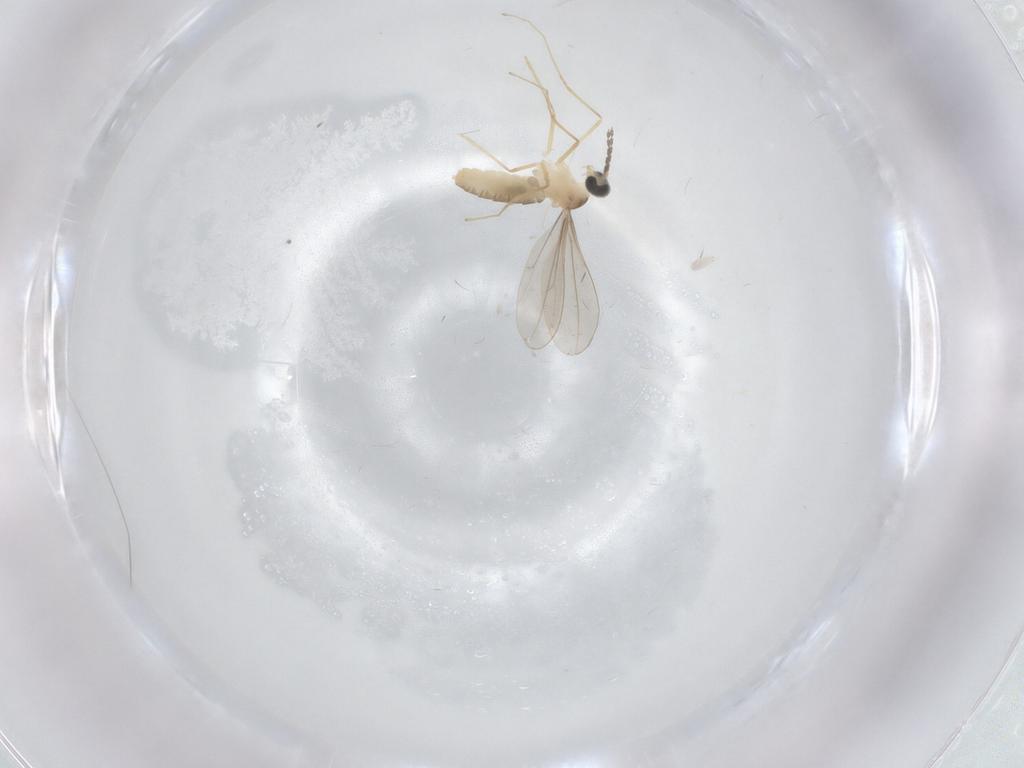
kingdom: Animalia
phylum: Arthropoda
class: Insecta
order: Diptera
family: Cecidomyiidae
